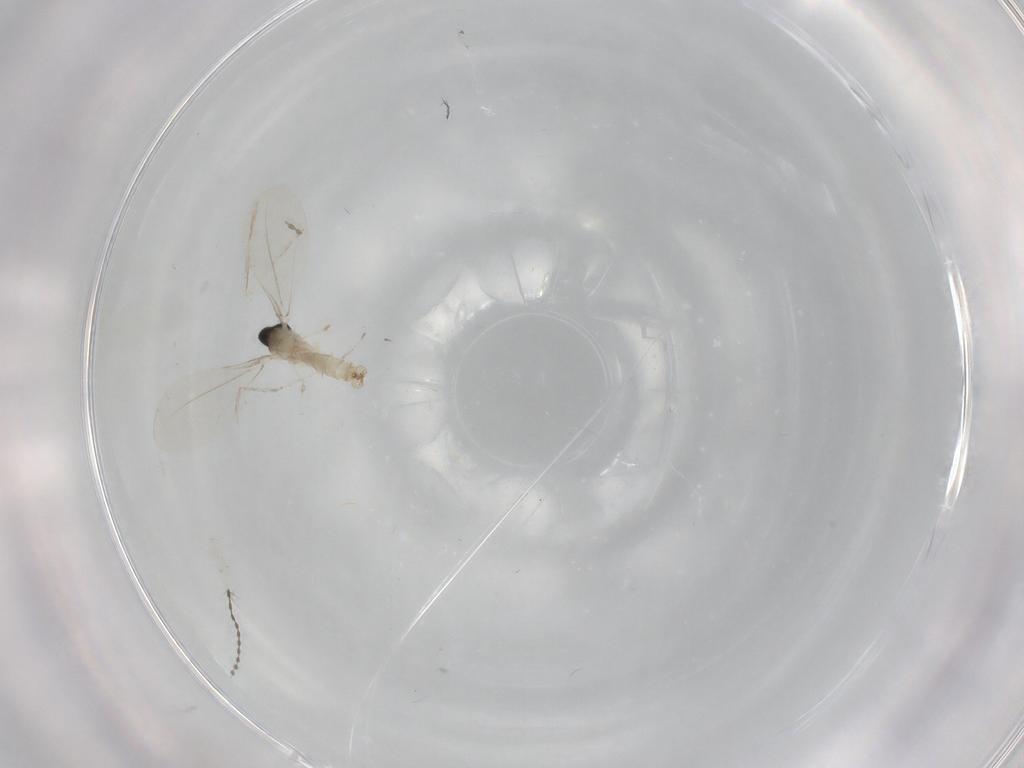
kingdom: Animalia
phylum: Arthropoda
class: Insecta
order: Diptera
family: Cecidomyiidae
